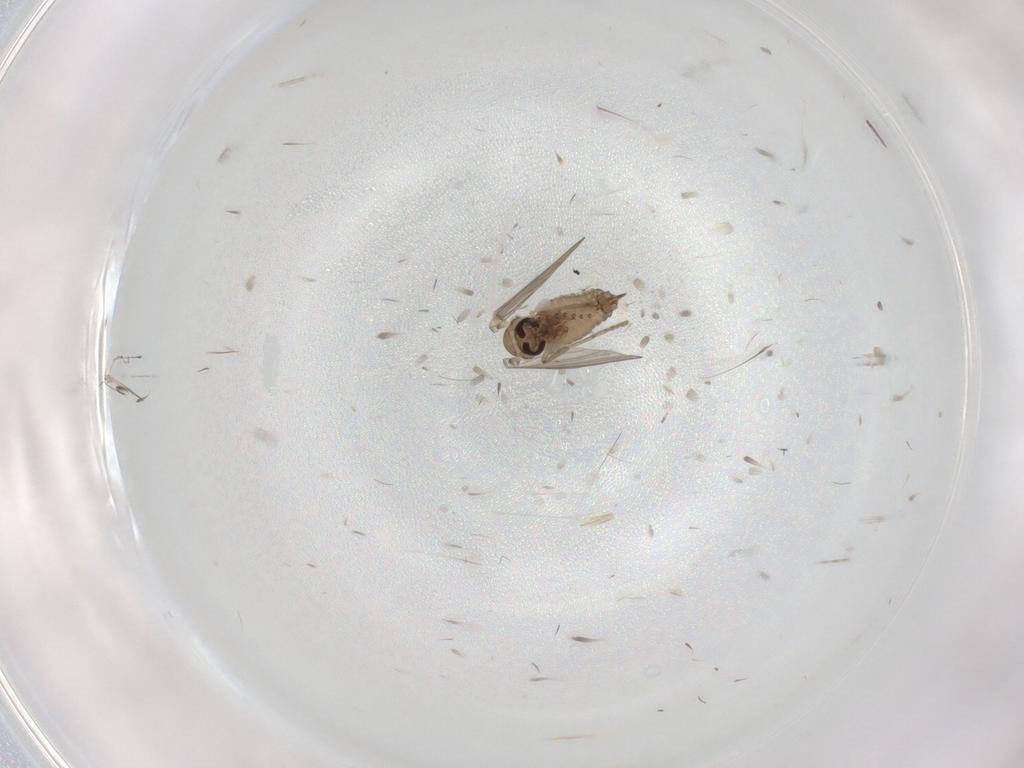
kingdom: Animalia
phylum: Arthropoda
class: Insecta
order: Diptera
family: Psychodidae
